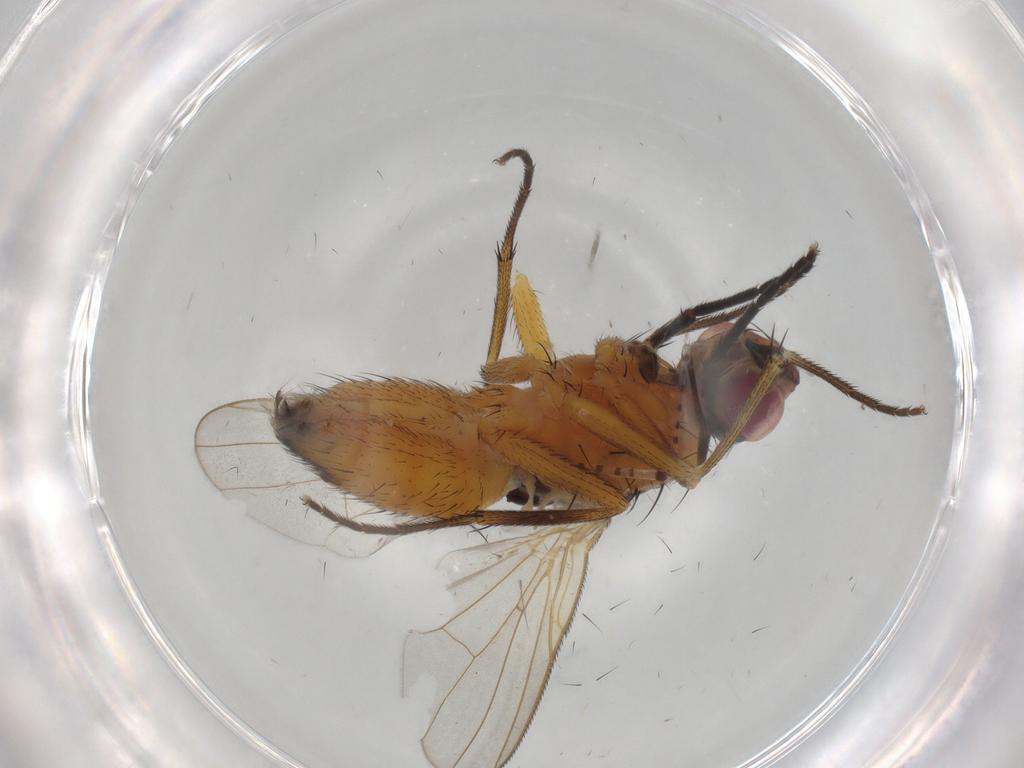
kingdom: Animalia
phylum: Arthropoda
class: Insecta
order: Diptera
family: Muscidae
